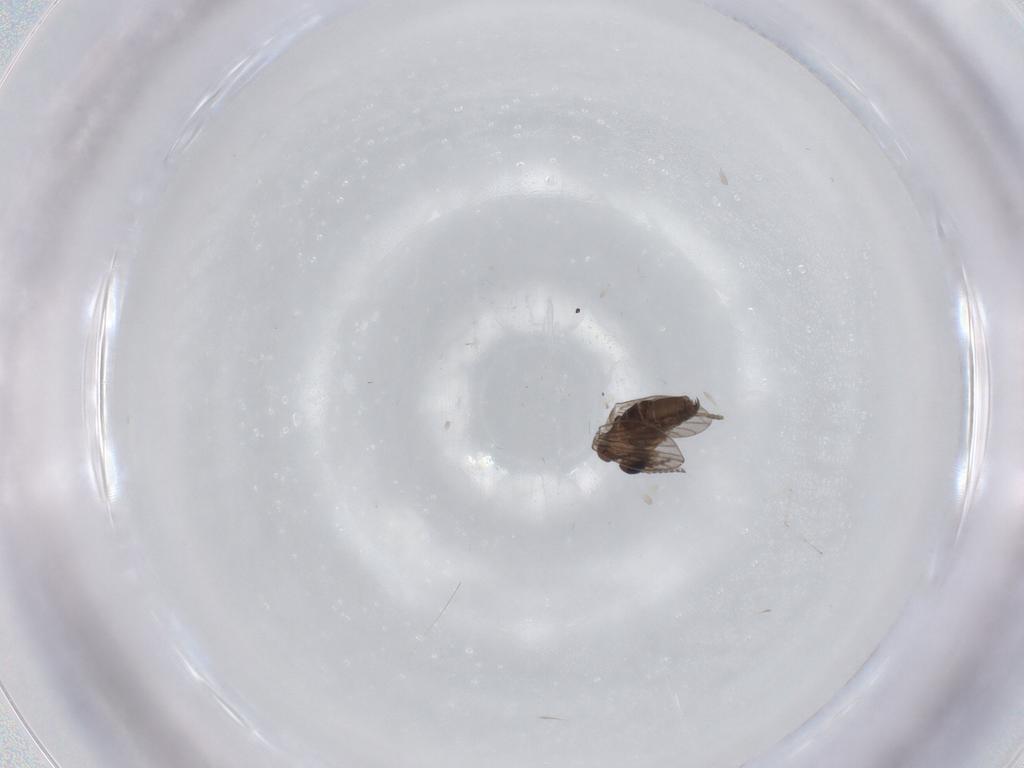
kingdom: Animalia
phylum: Arthropoda
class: Insecta
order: Diptera
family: Cecidomyiidae
